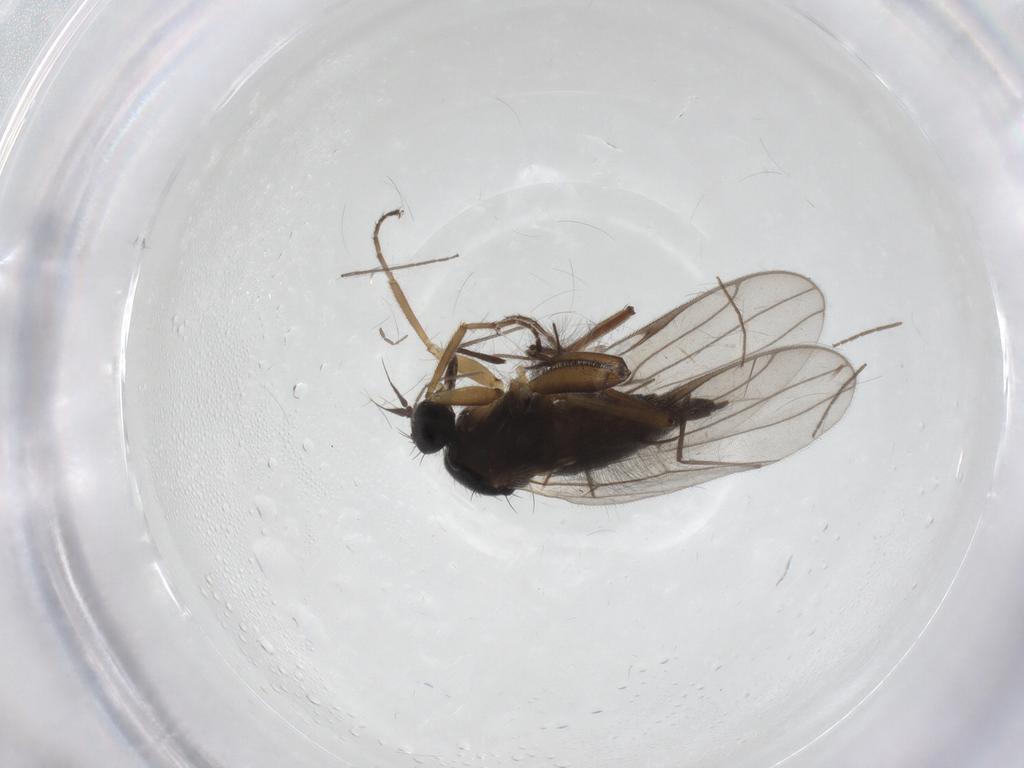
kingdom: Animalia
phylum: Arthropoda
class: Insecta
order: Diptera
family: Hybotidae
